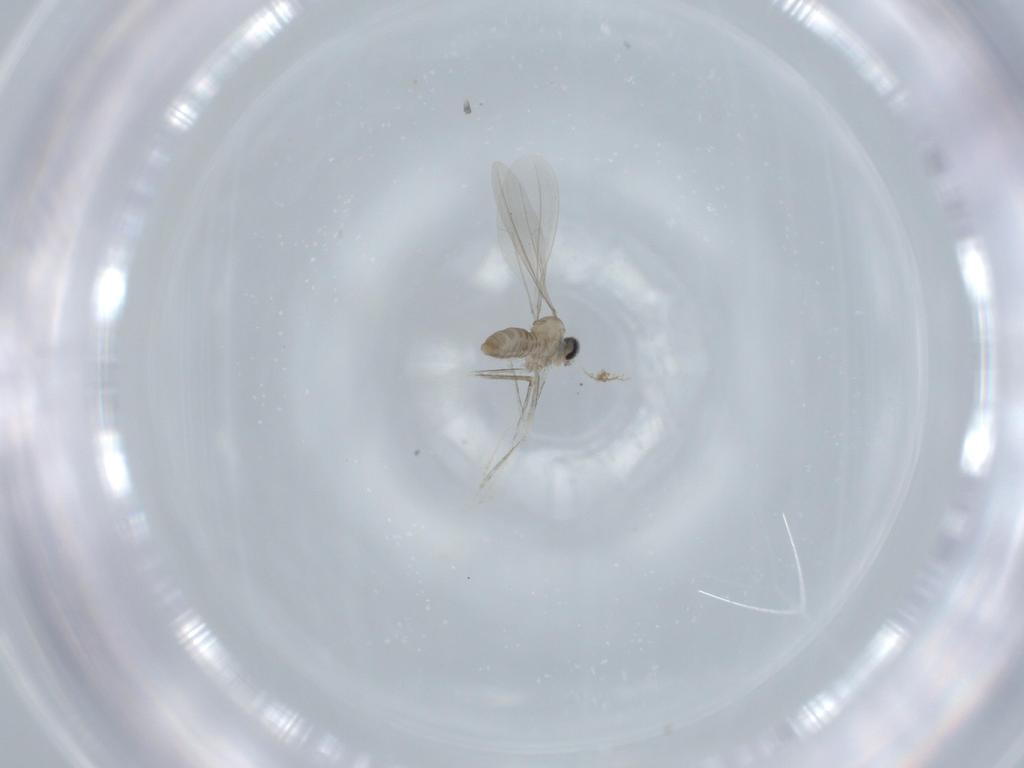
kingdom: Animalia
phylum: Arthropoda
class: Insecta
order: Diptera
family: Cecidomyiidae
